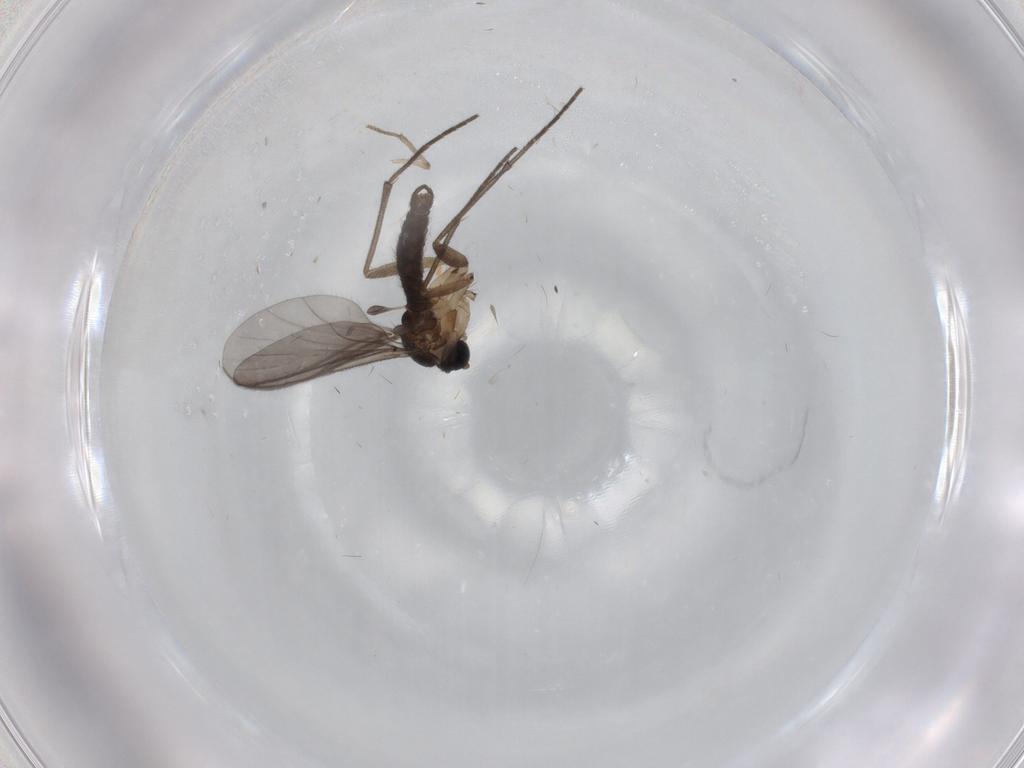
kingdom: Animalia
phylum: Arthropoda
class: Insecta
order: Diptera
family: Sciaridae
